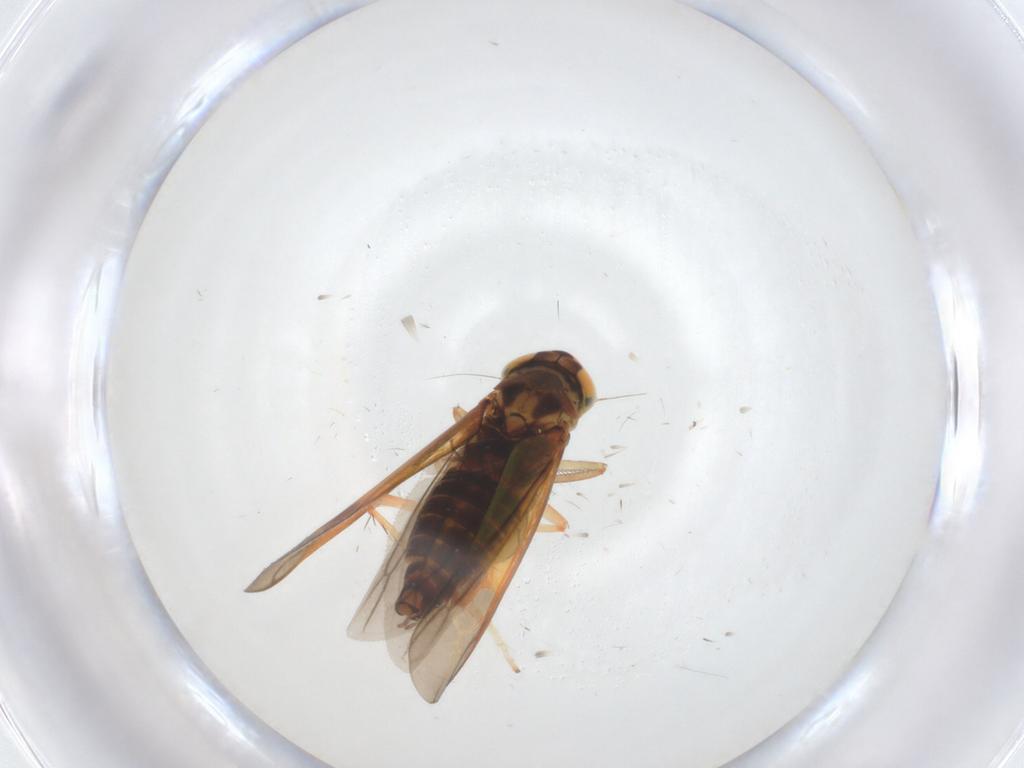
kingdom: Animalia
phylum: Arthropoda
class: Insecta
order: Hemiptera
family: Cicadellidae
